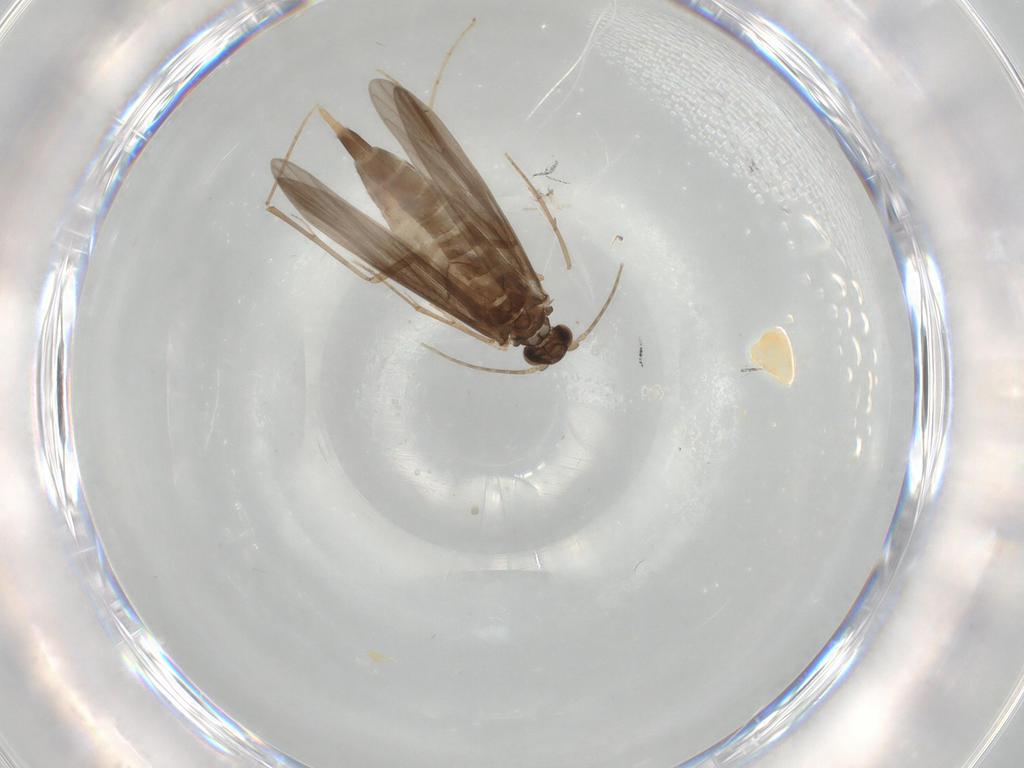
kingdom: Animalia
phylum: Arthropoda
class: Insecta
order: Trichoptera
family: Xiphocentronidae
